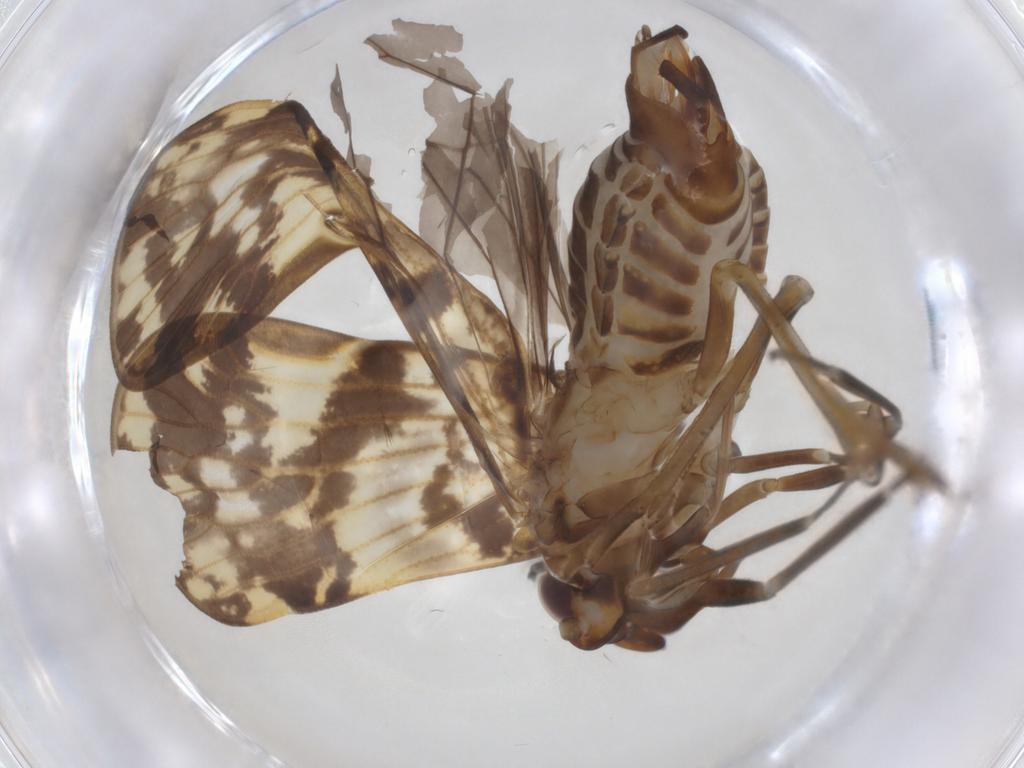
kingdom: Animalia
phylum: Arthropoda
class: Insecta
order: Hemiptera
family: Cixiidae
